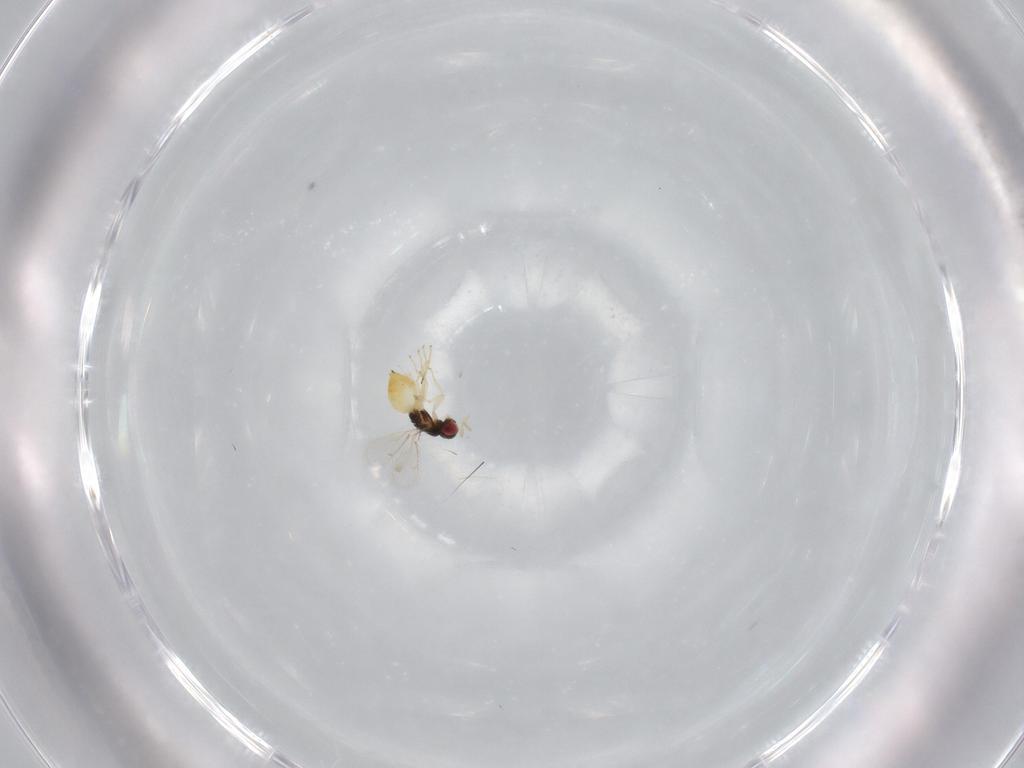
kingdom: Animalia
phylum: Arthropoda
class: Insecta
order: Hymenoptera
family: Eulophidae
